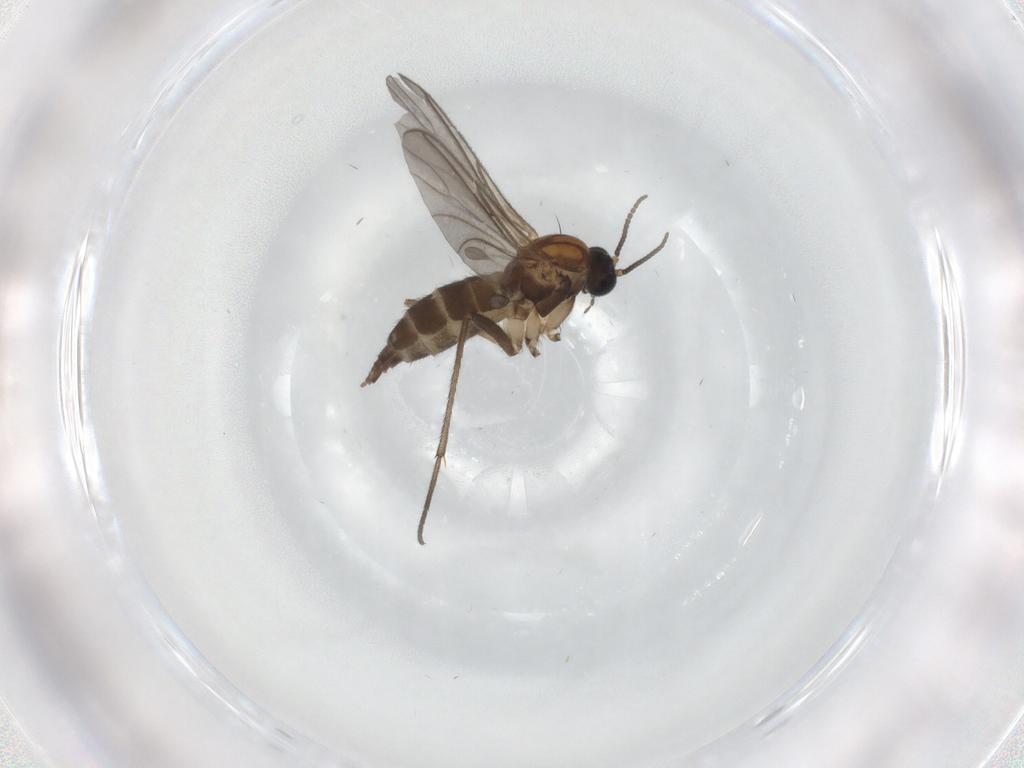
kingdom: Animalia
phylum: Arthropoda
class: Insecta
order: Diptera
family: Sciaridae
